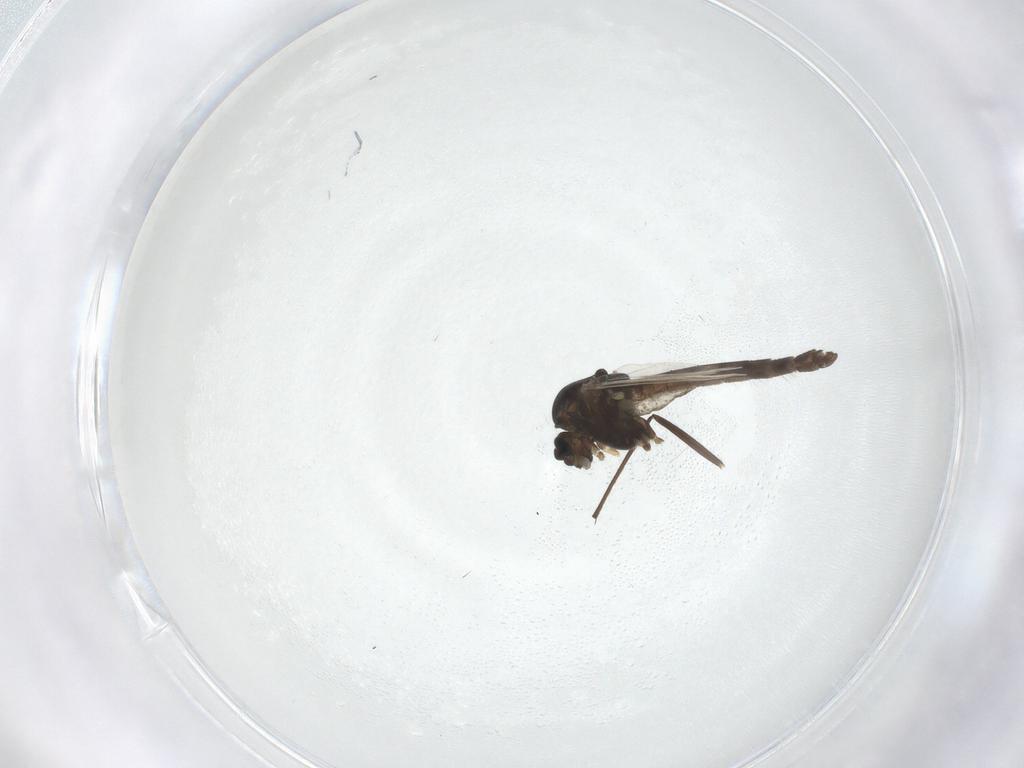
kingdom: Animalia
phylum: Arthropoda
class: Insecta
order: Diptera
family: Chironomidae
